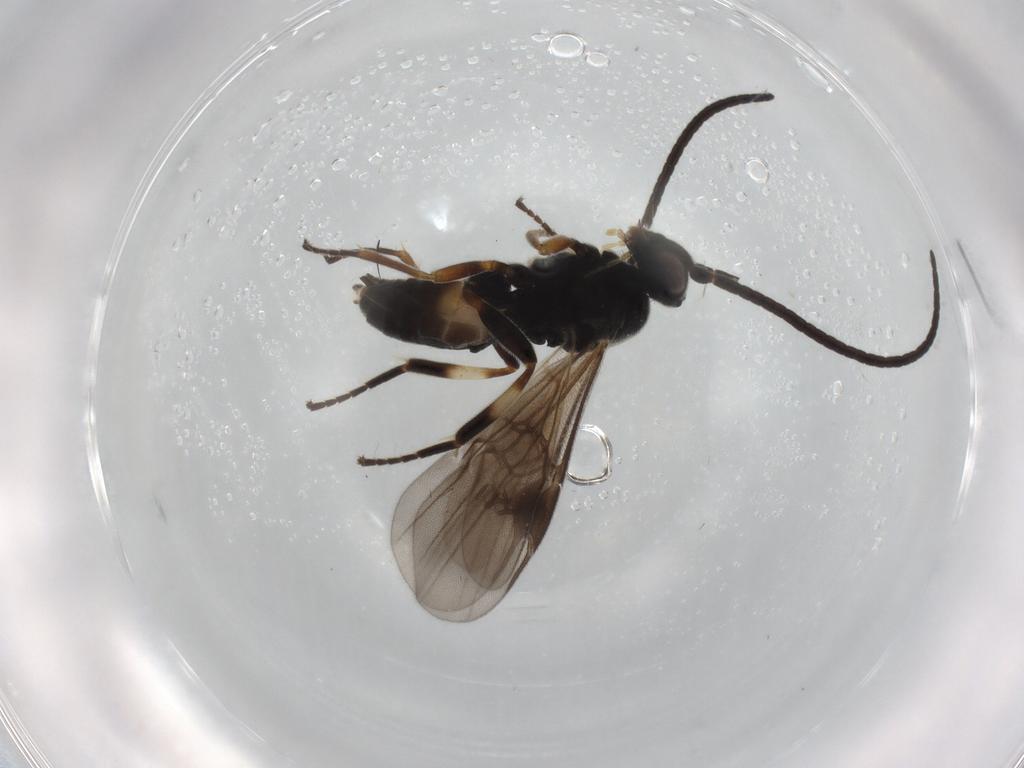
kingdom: Animalia
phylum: Arthropoda
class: Insecta
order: Hymenoptera
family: Braconidae
